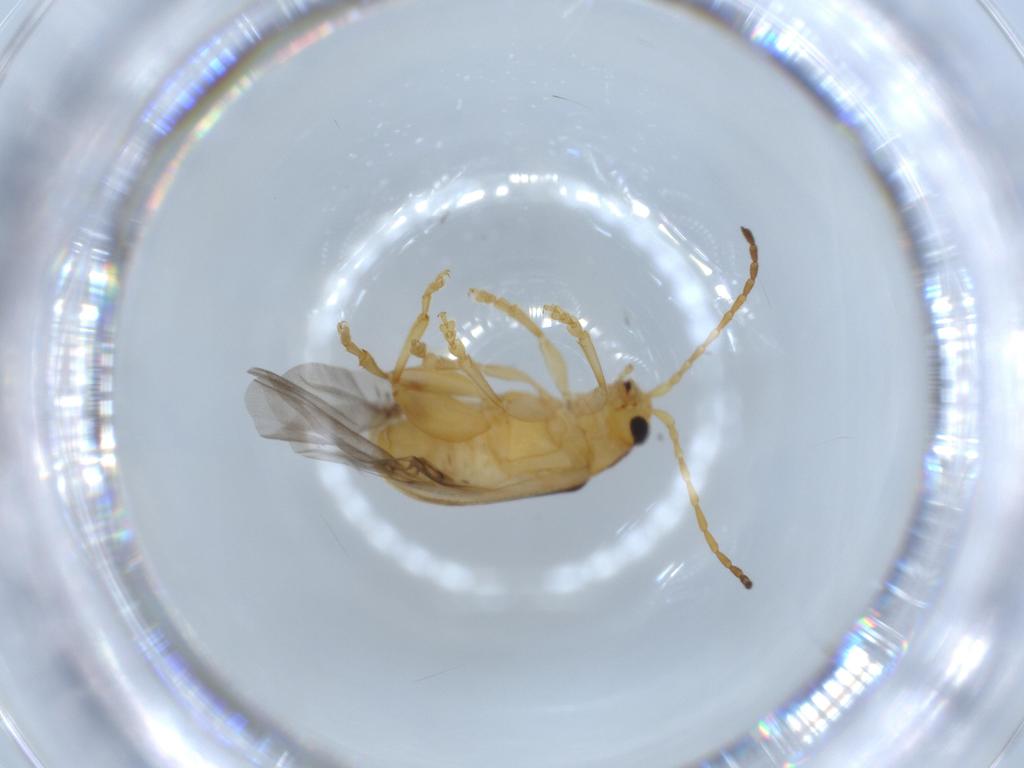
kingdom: Animalia
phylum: Arthropoda
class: Insecta
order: Coleoptera
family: Chrysomelidae
